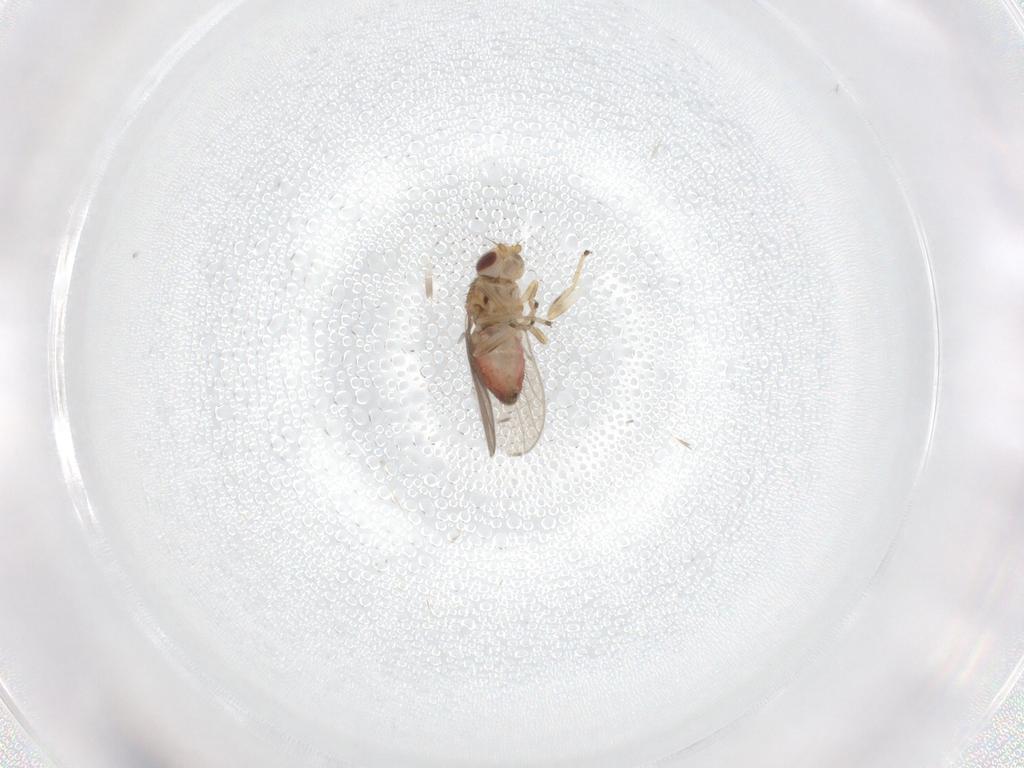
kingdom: Animalia
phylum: Arthropoda
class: Insecta
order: Diptera
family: Chloropidae
